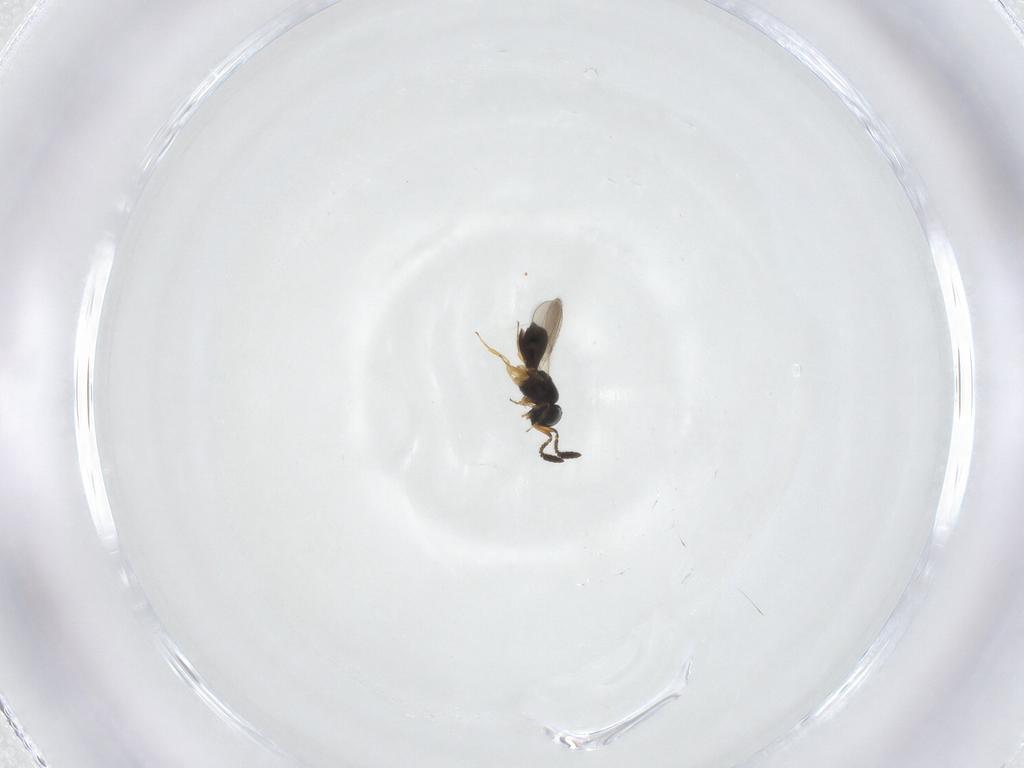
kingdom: Animalia
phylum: Arthropoda
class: Insecta
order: Hymenoptera
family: Scelionidae
